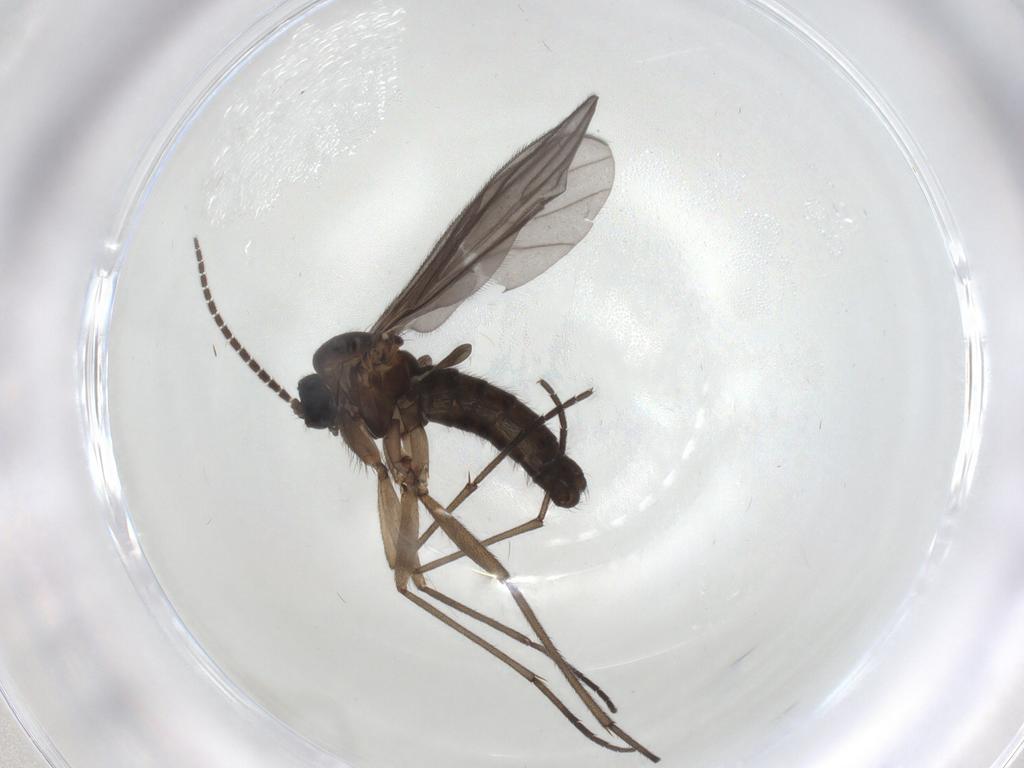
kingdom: Animalia
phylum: Arthropoda
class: Insecta
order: Diptera
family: Sciaridae
